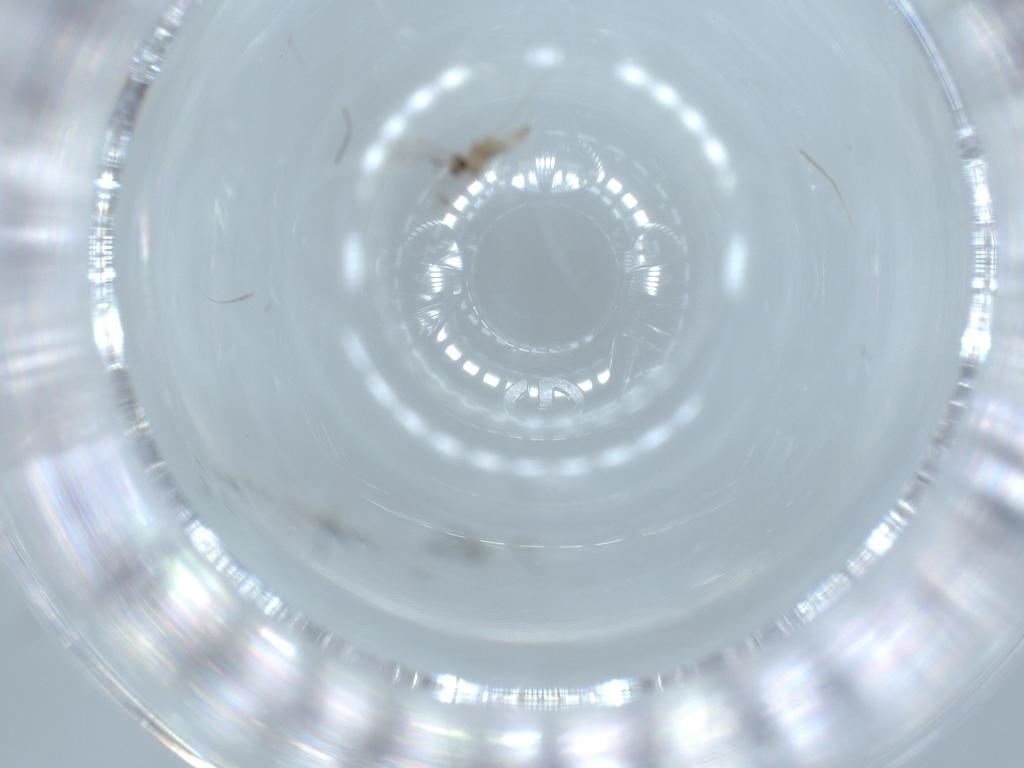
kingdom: Animalia
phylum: Arthropoda
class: Insecta
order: Diptera
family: Cecidomyiidae
